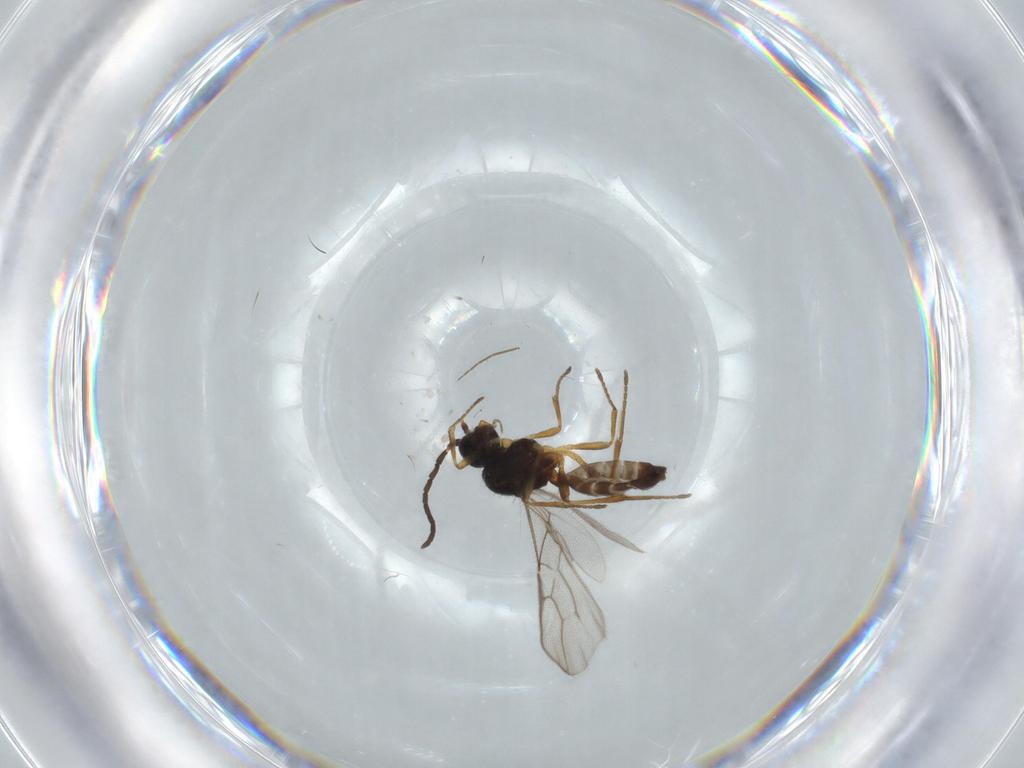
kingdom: Animalia
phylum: Arthropoda
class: Insecta
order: Hymenoptera
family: Braconidae
